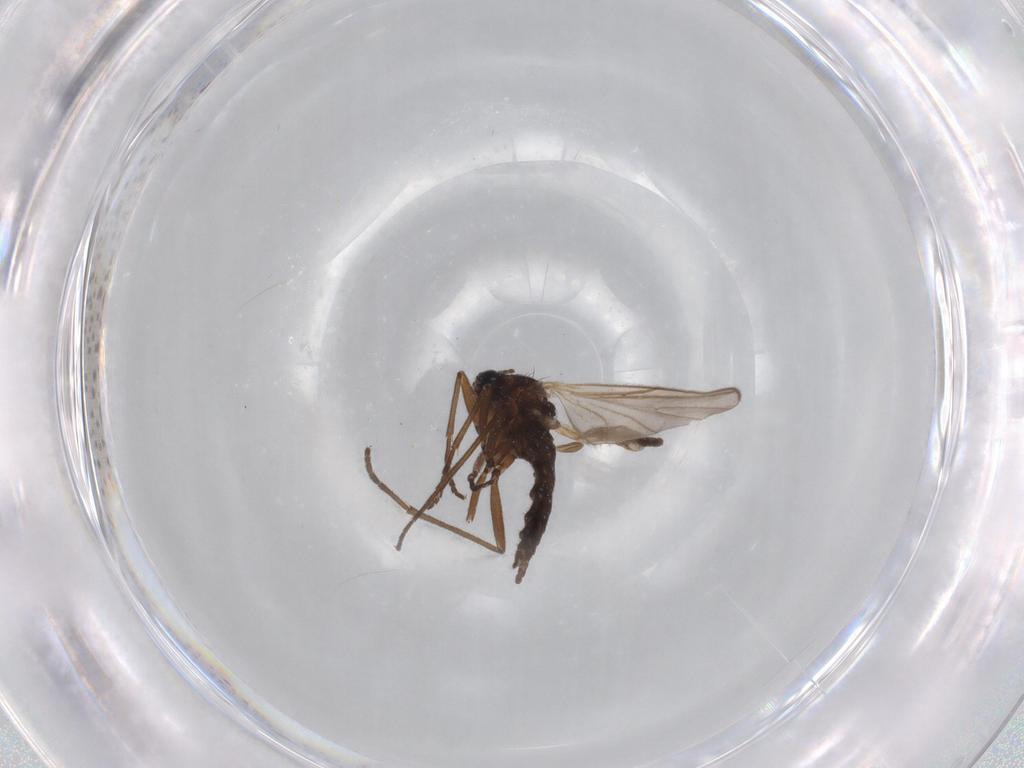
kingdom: Animalia
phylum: Arthropoda
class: Insecta
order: Diptera
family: Sciaridae
